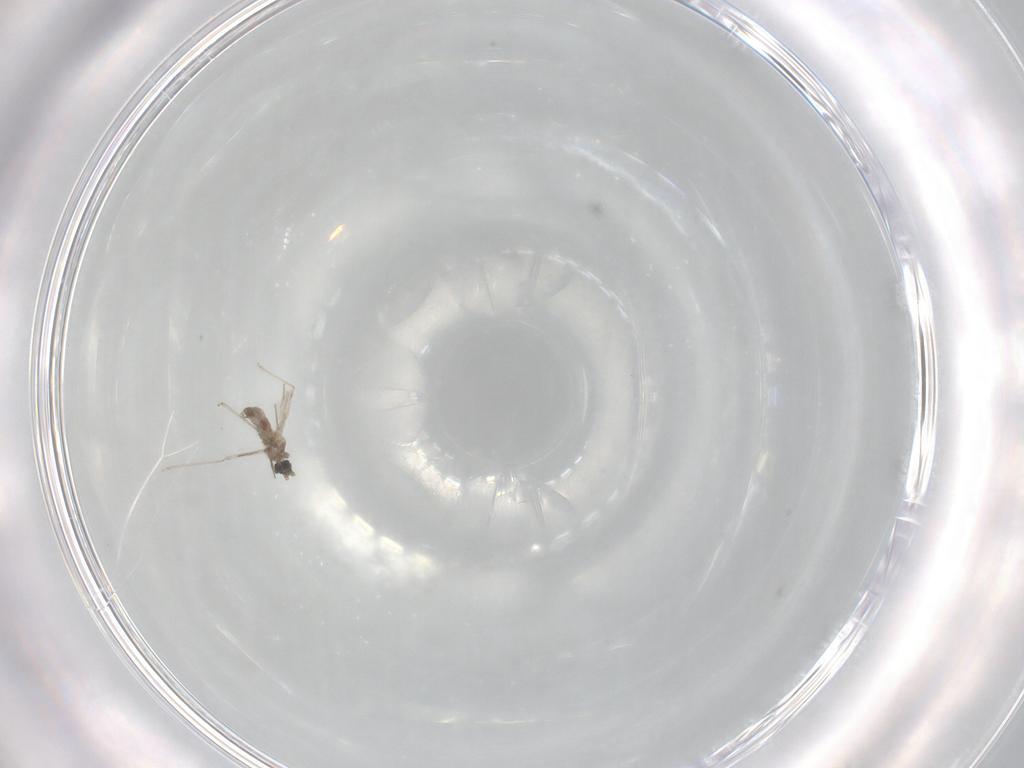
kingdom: Animalia
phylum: Arthropoda
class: Insecta
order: Diptera
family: Cecidomyiidae
